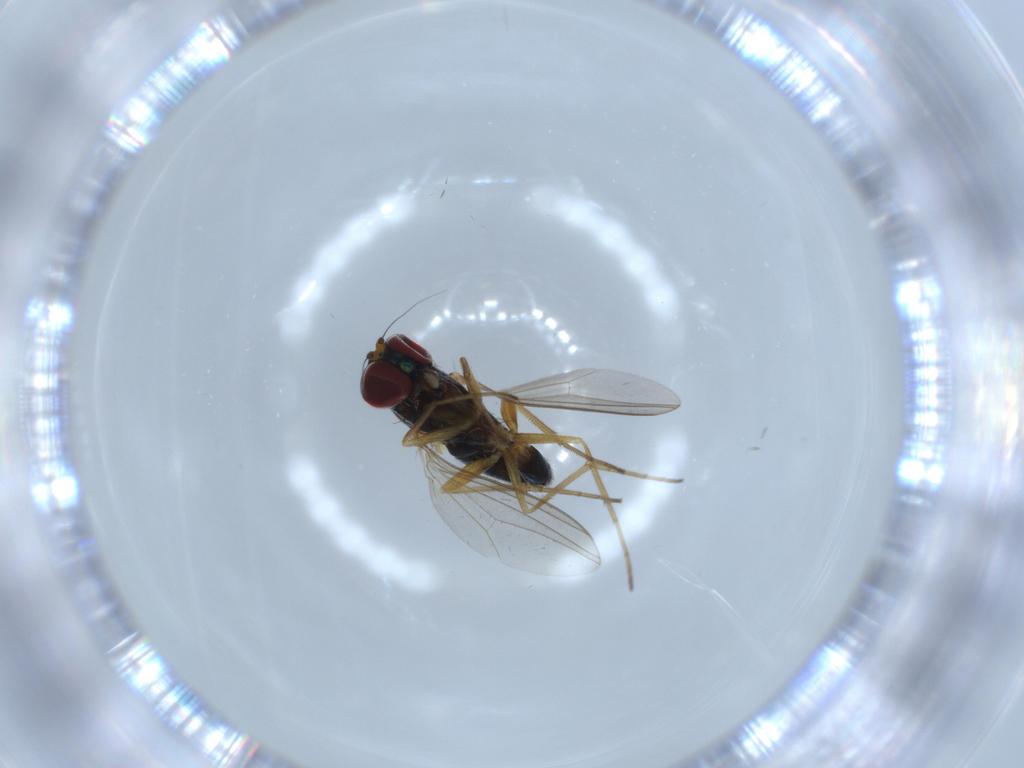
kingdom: Animalia
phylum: Arthropoda
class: Insecta
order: Diptera
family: Dolichopodidae
